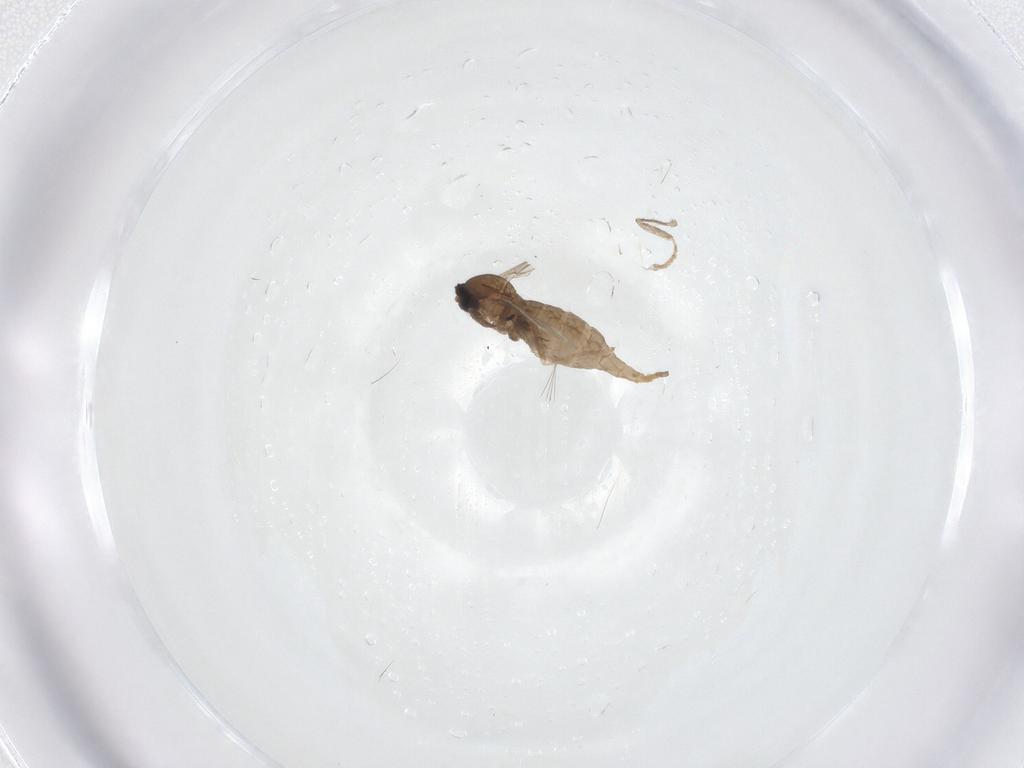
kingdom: Animalia
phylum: Arthropoda
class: Insecta
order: Diptera
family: Cecidomyiidae
